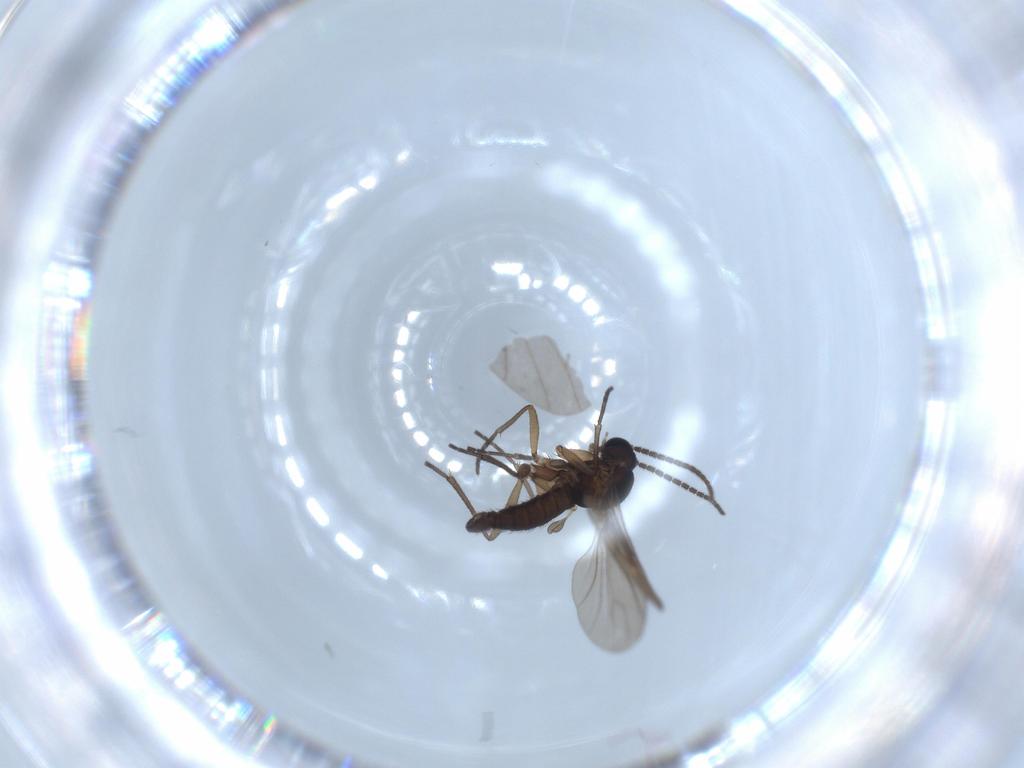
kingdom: Animalia
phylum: Arthropoda
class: Insecta
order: Diptera
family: Sciaridae
